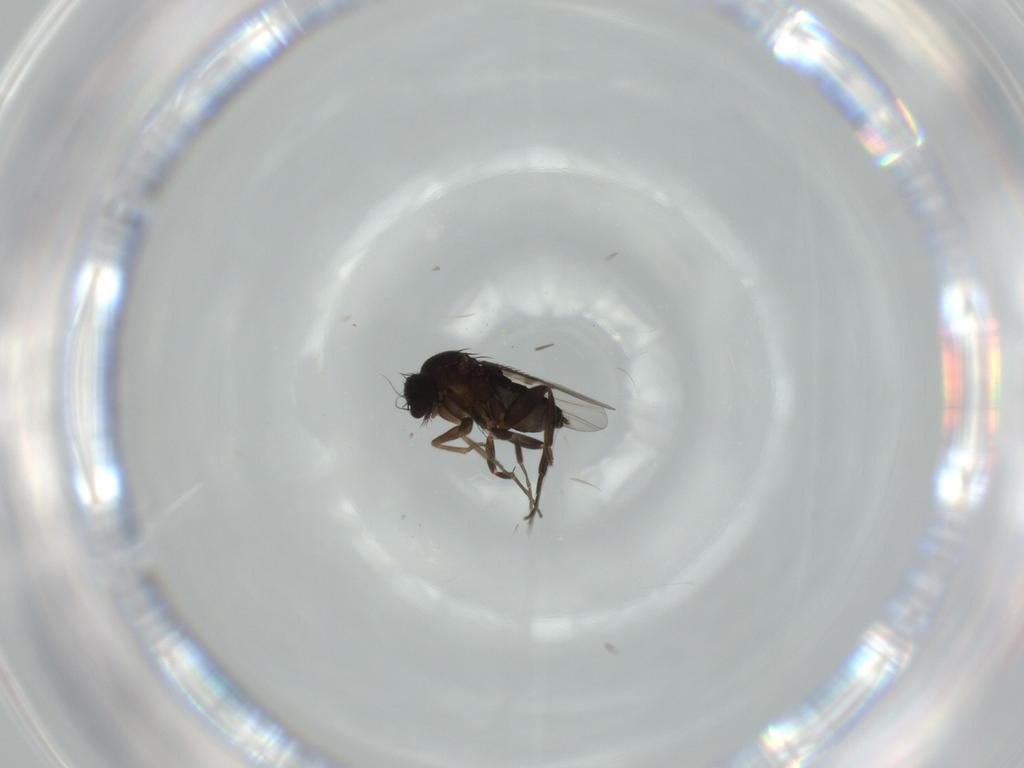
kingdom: Animalia
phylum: Arthropoda
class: Insecta
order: Diptera
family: Phoridae
